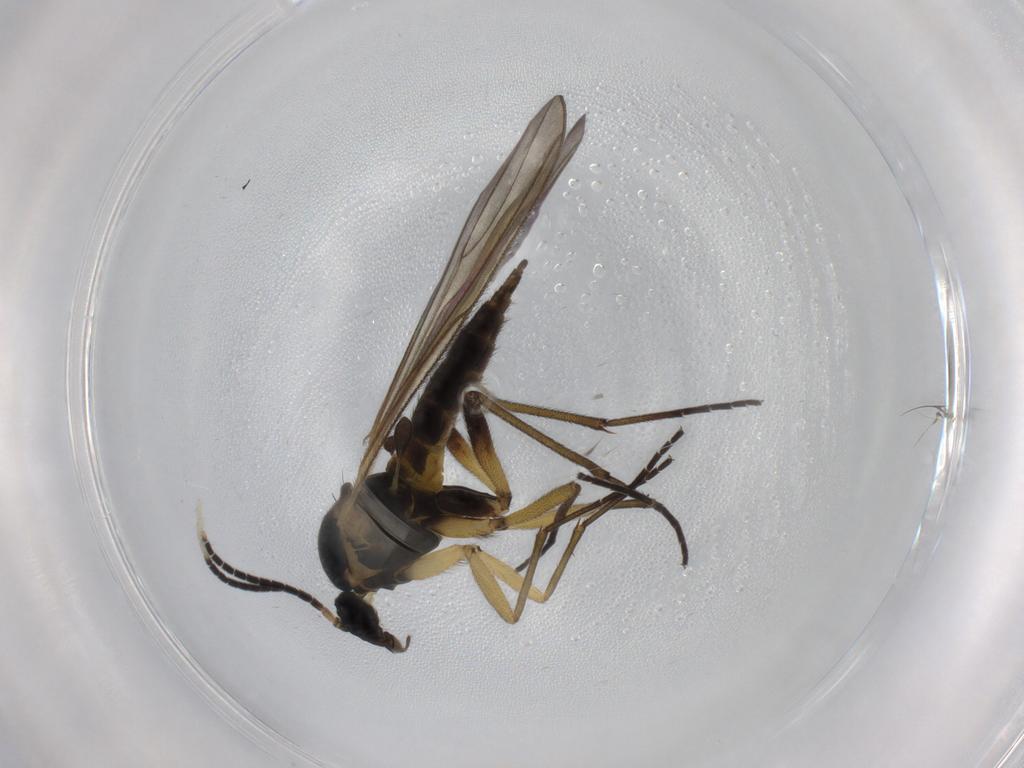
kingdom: Animalia
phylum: Arthropoda
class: Insecta
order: Diptera
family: Sciaridae
